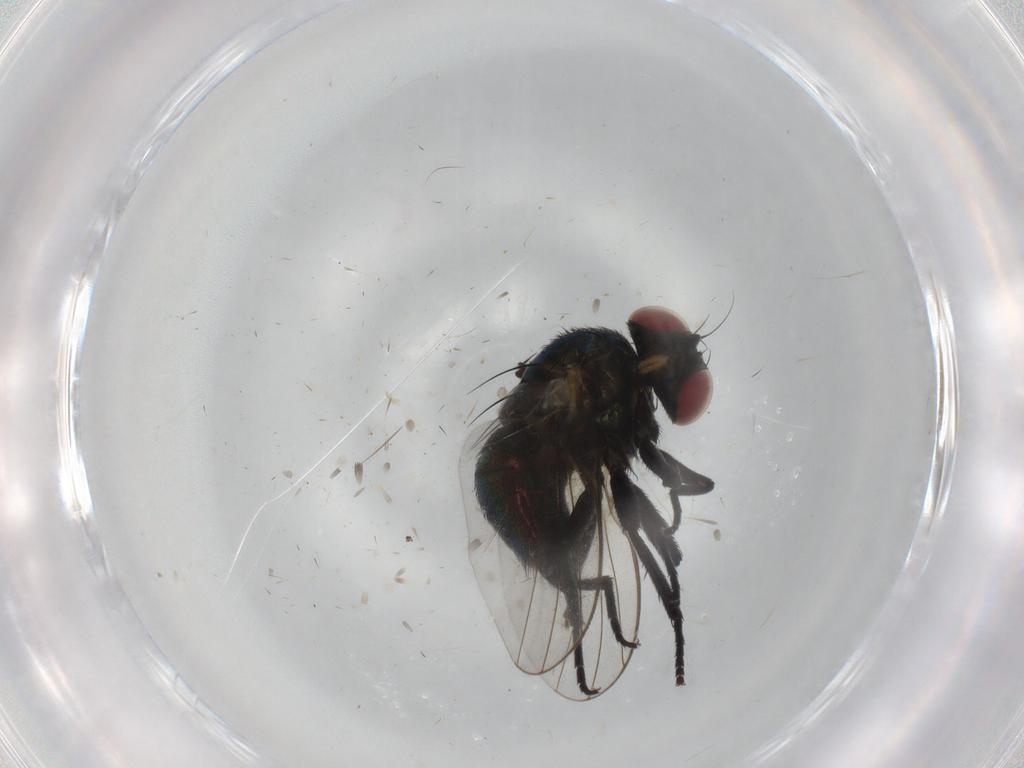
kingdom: Animalia
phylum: Arthropoda
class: Insecta
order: Diptera
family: Agromyzidae
